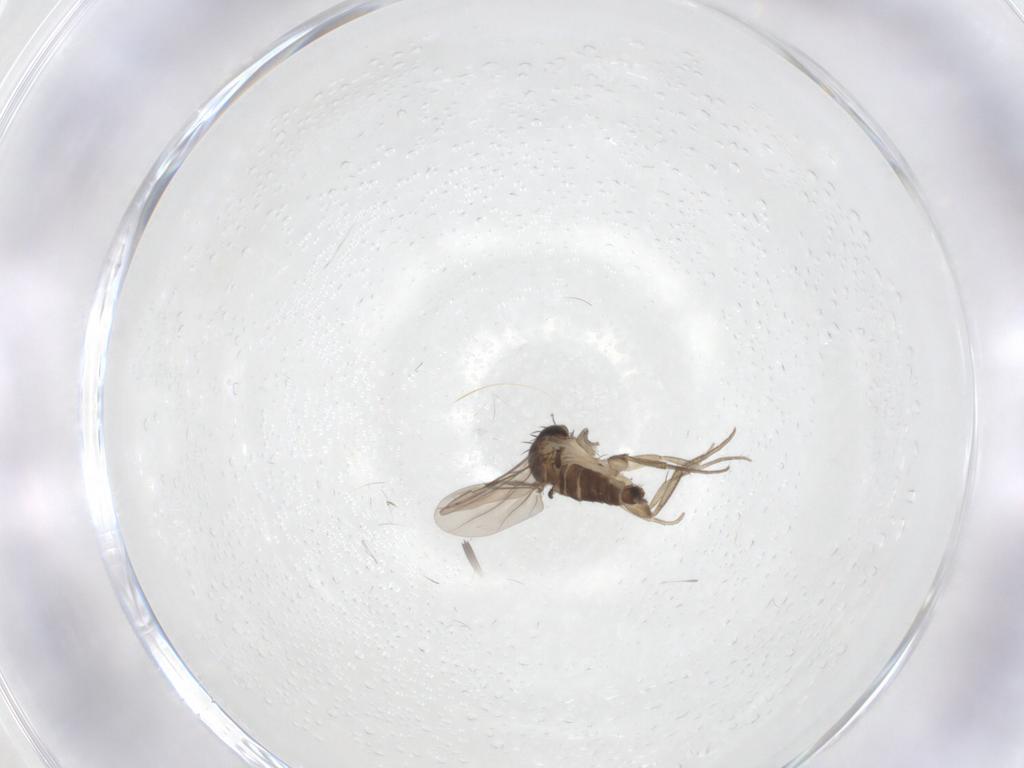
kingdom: Animalia
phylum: Arthropoda
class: Insecta
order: Diptera
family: Phoridae
